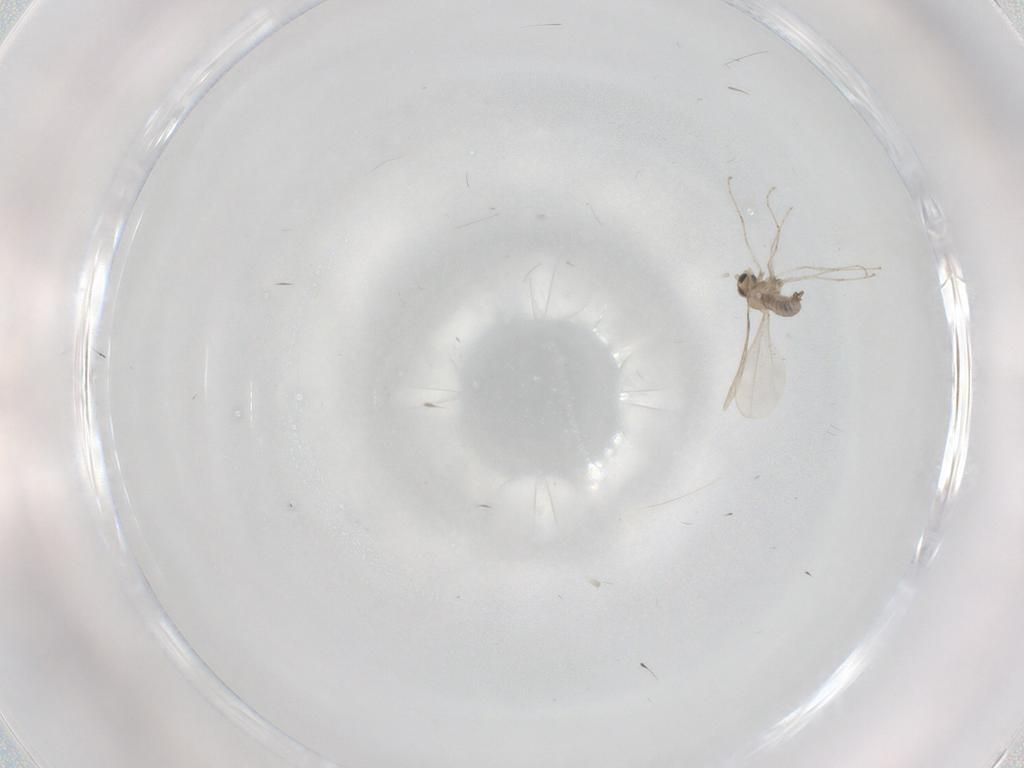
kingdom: Animalia
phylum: Arthropoda
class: Insecta
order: Diptera
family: Cecidomyiidae
